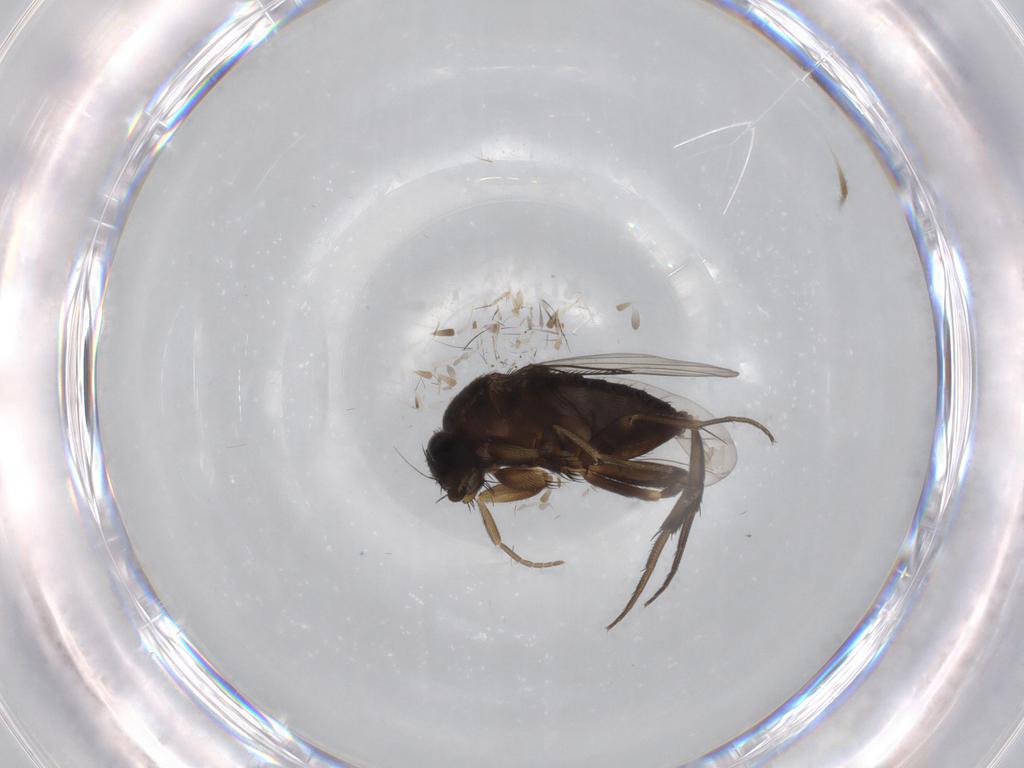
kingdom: Animalia
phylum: Arthropoda
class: Insecta
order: Diptera
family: Phoridae
